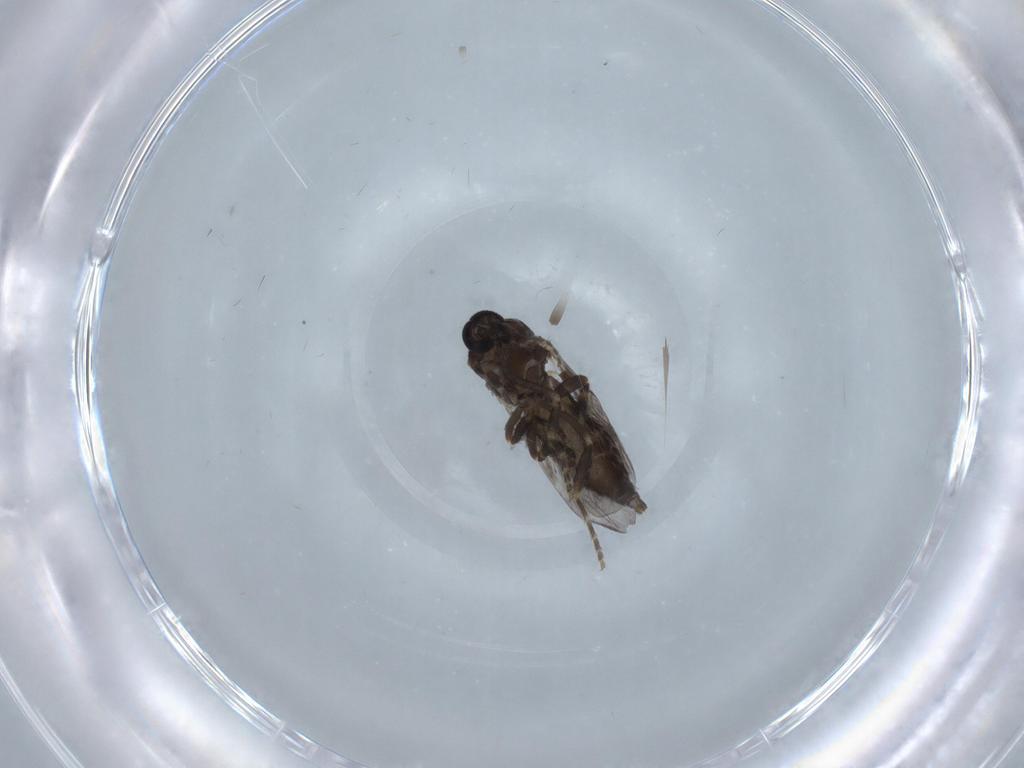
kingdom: Animalia
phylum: Arthropoda
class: Insecta
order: Diptera
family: Ceratopogonidae
